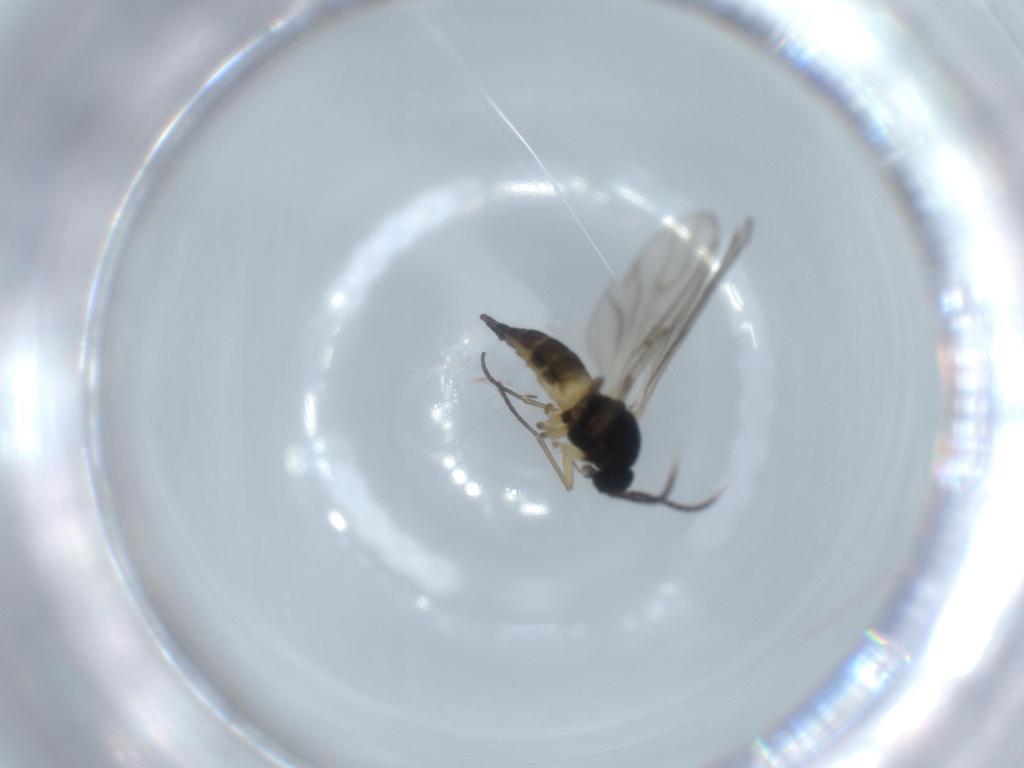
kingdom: Animalia
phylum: Arthropoda
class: Insecta
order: Diptera
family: Sciaridae
